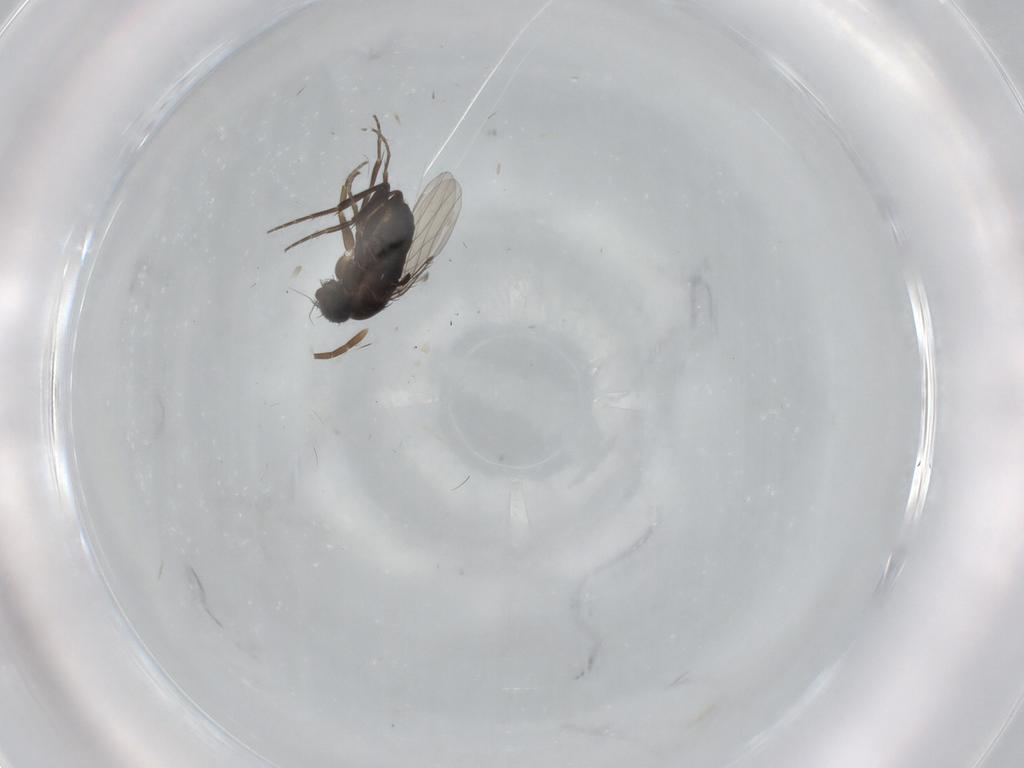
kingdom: Animalia
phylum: Arthropoda
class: Insecta
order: Diptera
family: Phoridae
